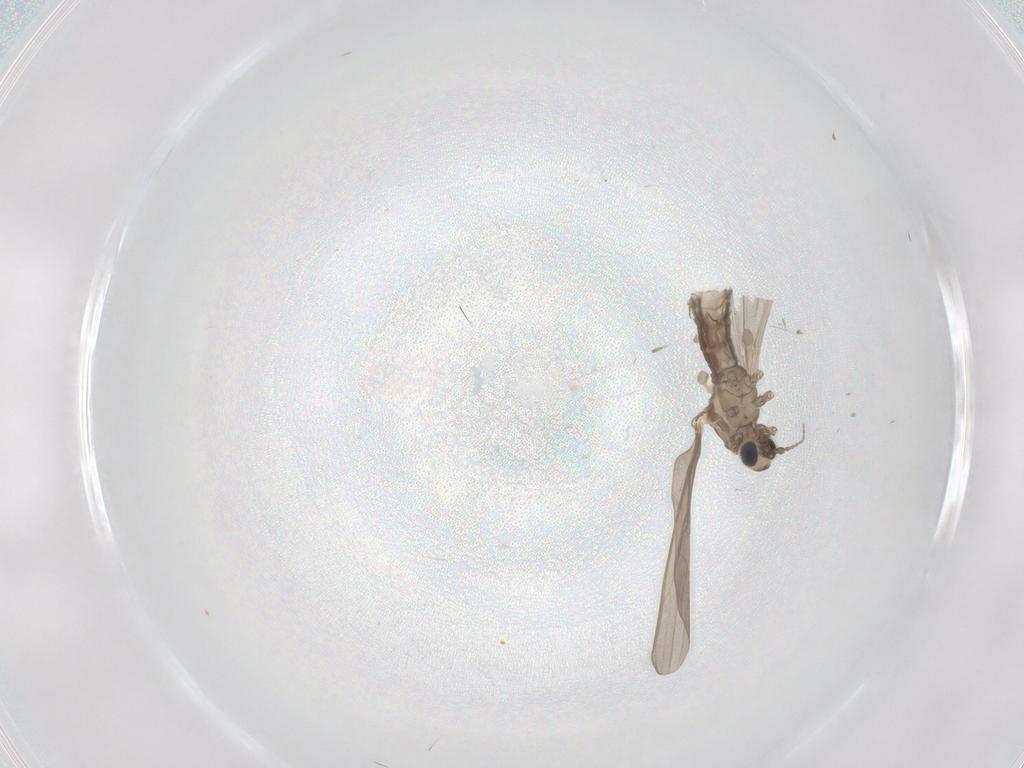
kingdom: Animalia
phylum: Arthropoda
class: Insecta
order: Diptera
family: Limoniidae
